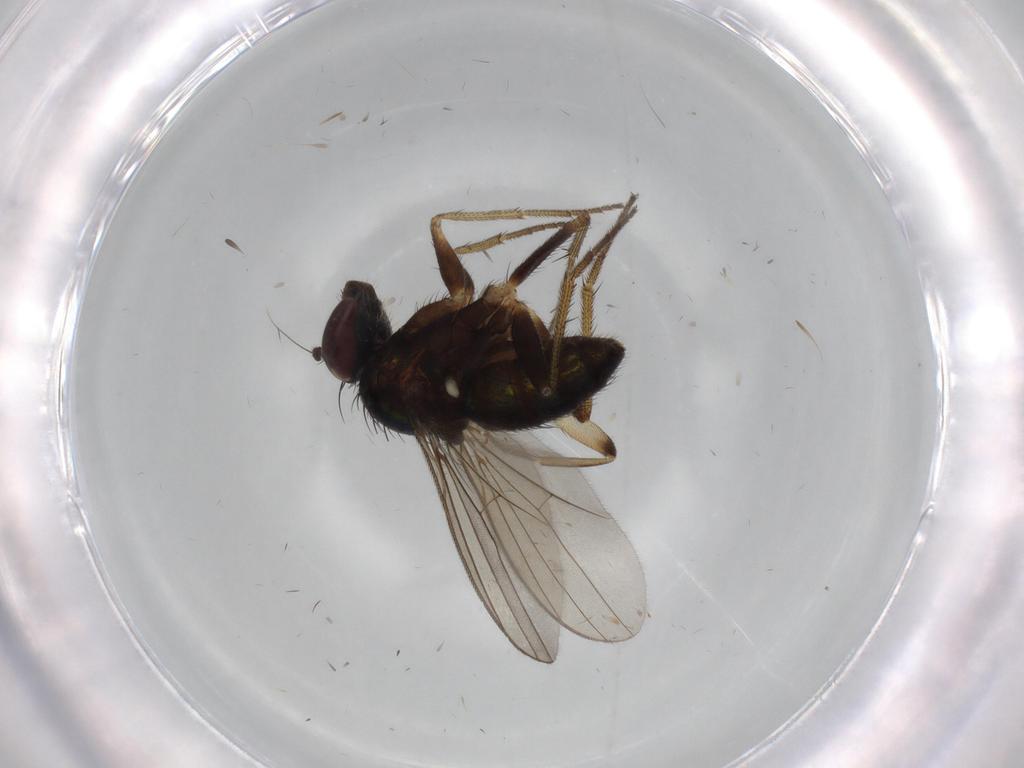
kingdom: Animalia
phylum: Arthropoda
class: Insecta
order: Diptera
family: Phoridae
